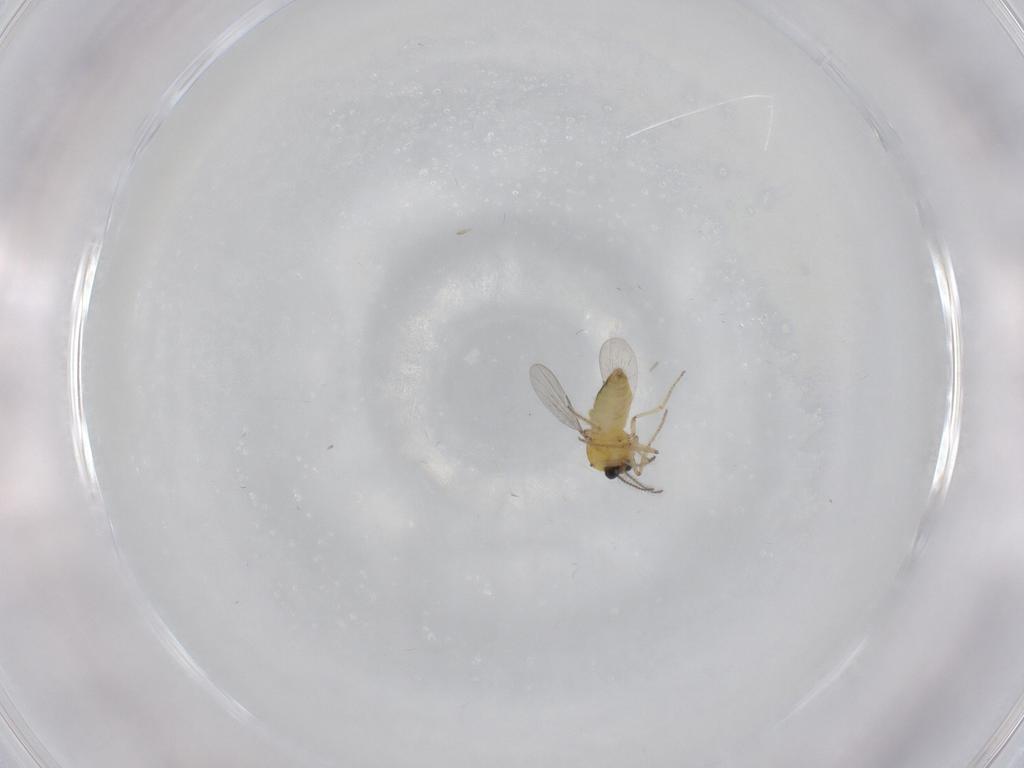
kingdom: Animalia
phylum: Arthropoda
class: Insecta
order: Diptera
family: Ceratopogonidae
